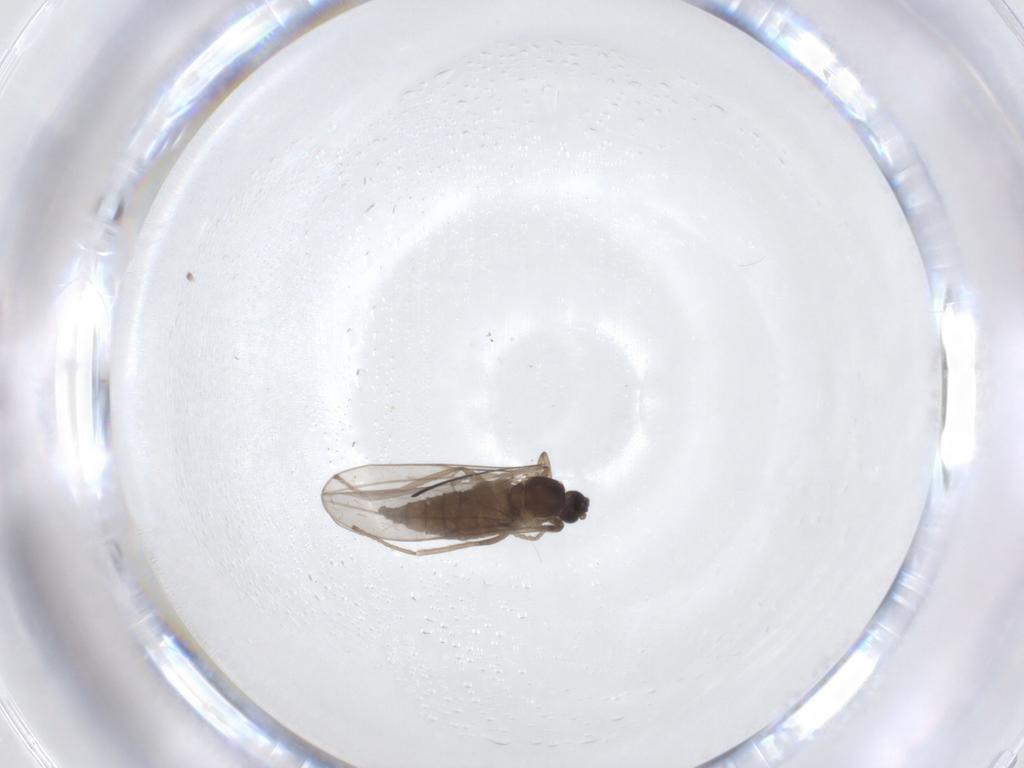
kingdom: Animalia
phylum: Arthropoda
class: Insecta
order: Diptera
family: Cecidomyiidae
